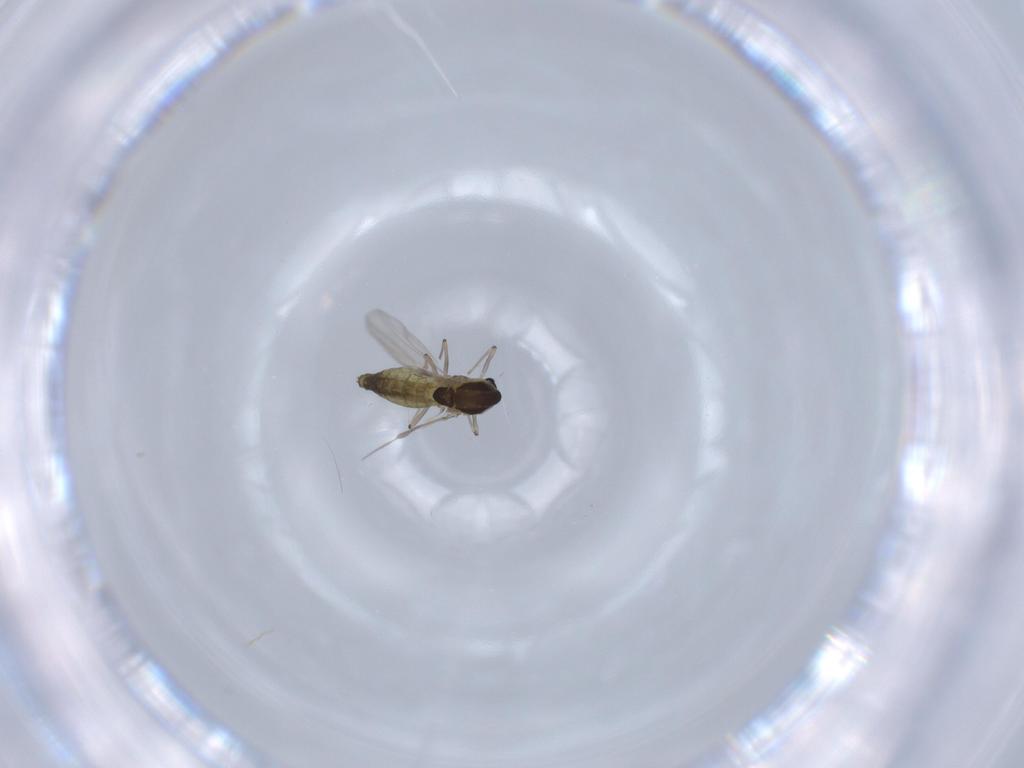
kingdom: Animalia
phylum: Arthropoda
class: Insecta
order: Diptera
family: Chironomidae
